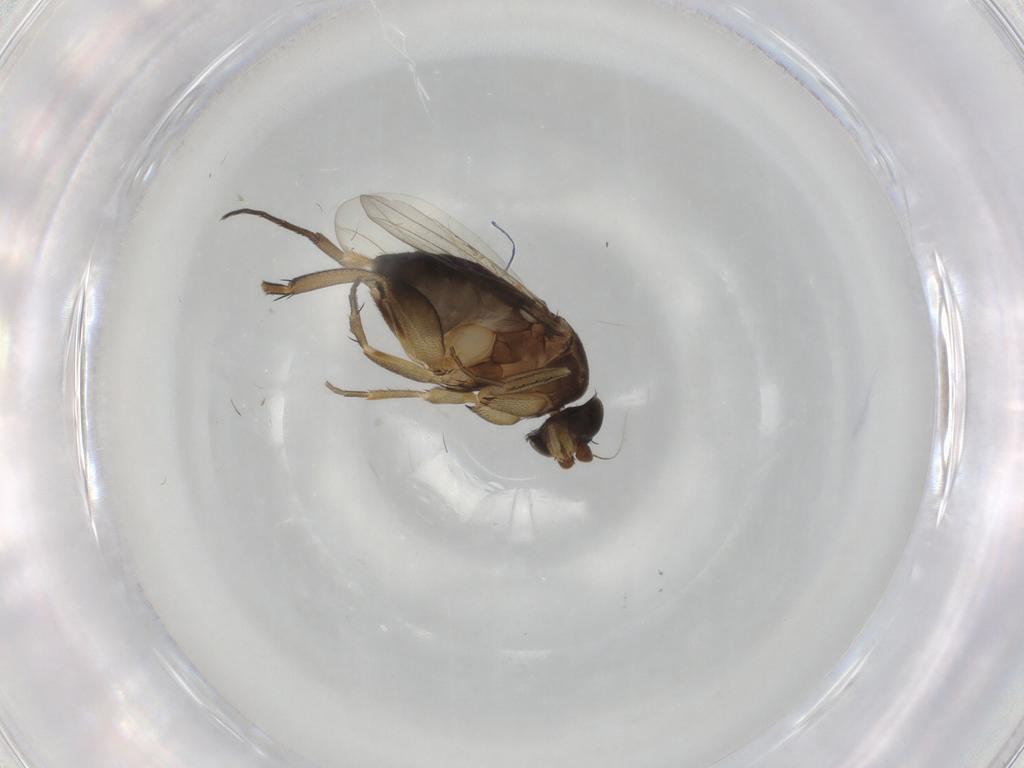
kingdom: Animalia
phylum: Arthropoda
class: Insecta
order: Diptera
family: Phoridae
